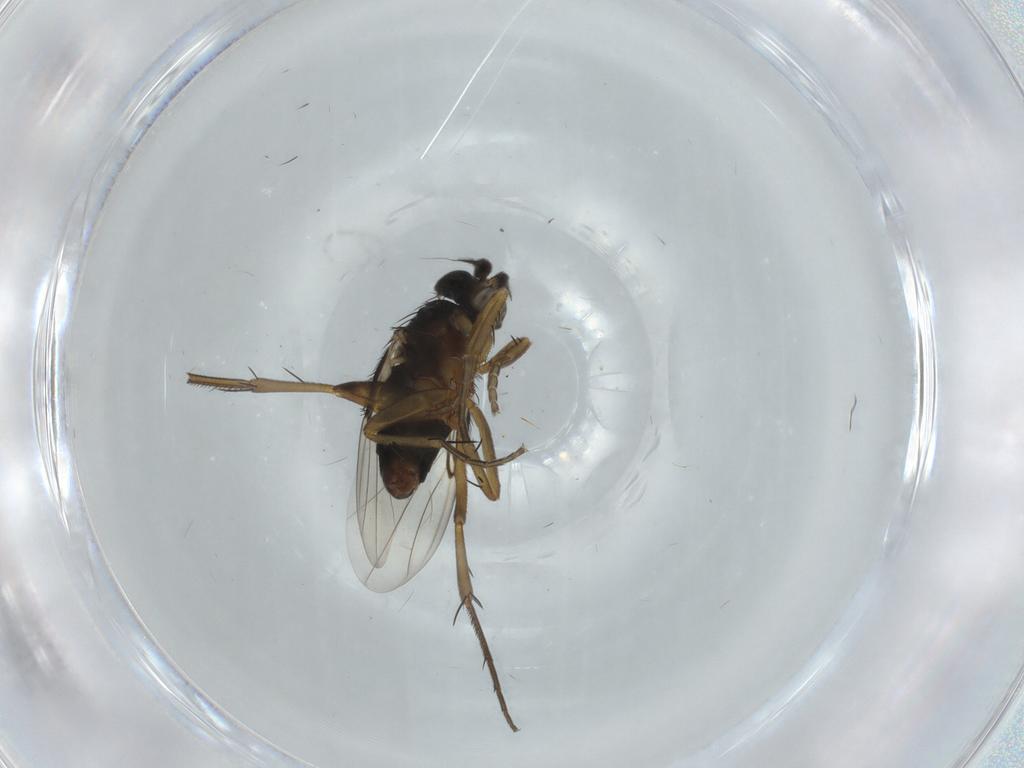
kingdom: Animalia
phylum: Arthropoda
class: Insecta
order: Diptera
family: Phoridae
